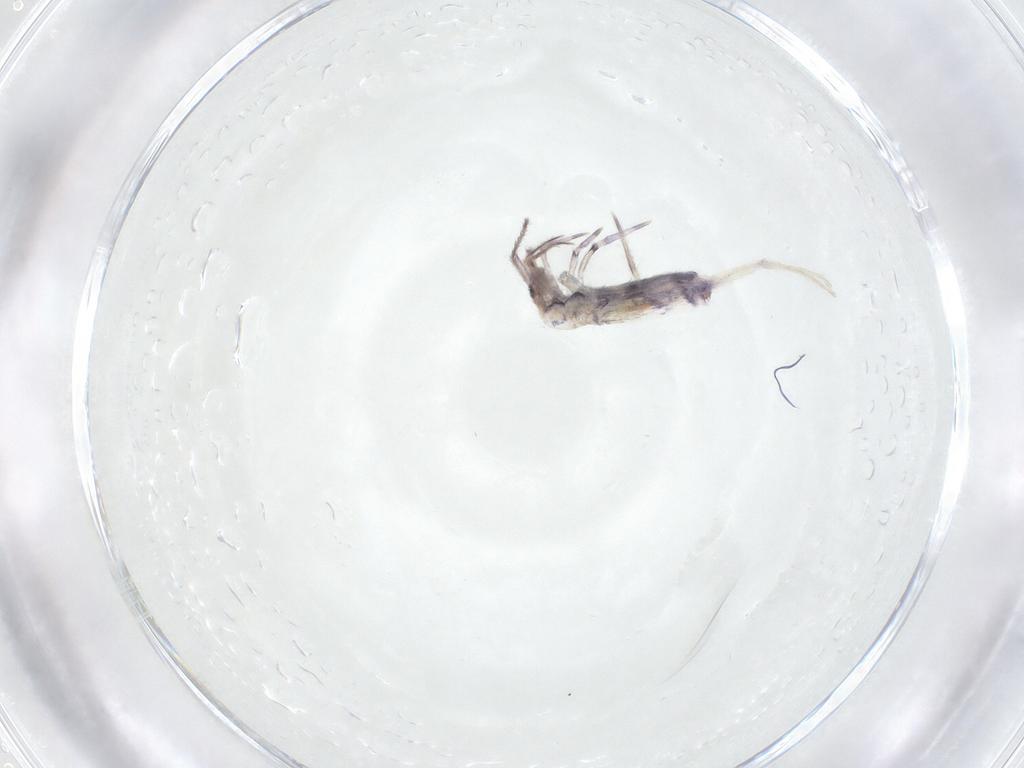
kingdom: Animalia
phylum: Arthropoda
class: Collembola
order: Entomobryomorpha
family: Entomobryidae
